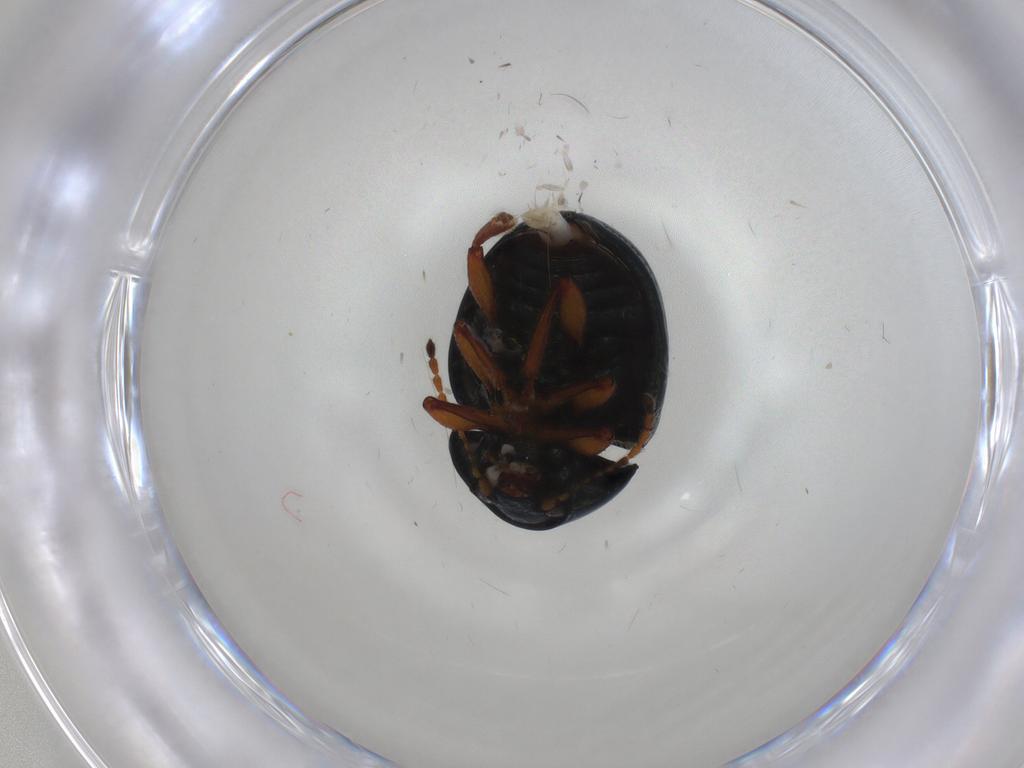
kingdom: Animalia
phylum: Arthropoda
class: Insecta
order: Coleoptera
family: Chrysomelidae
